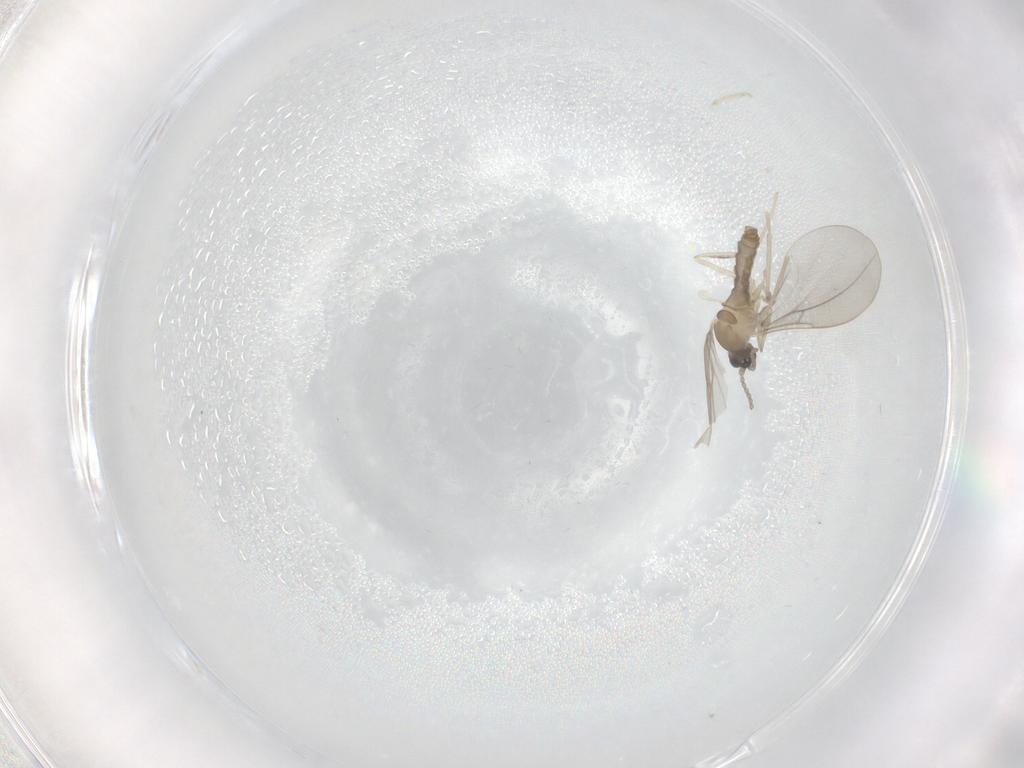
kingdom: Animalia
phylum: Arthropoda
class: Insecta
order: Diptera
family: Cecidomyiidae
